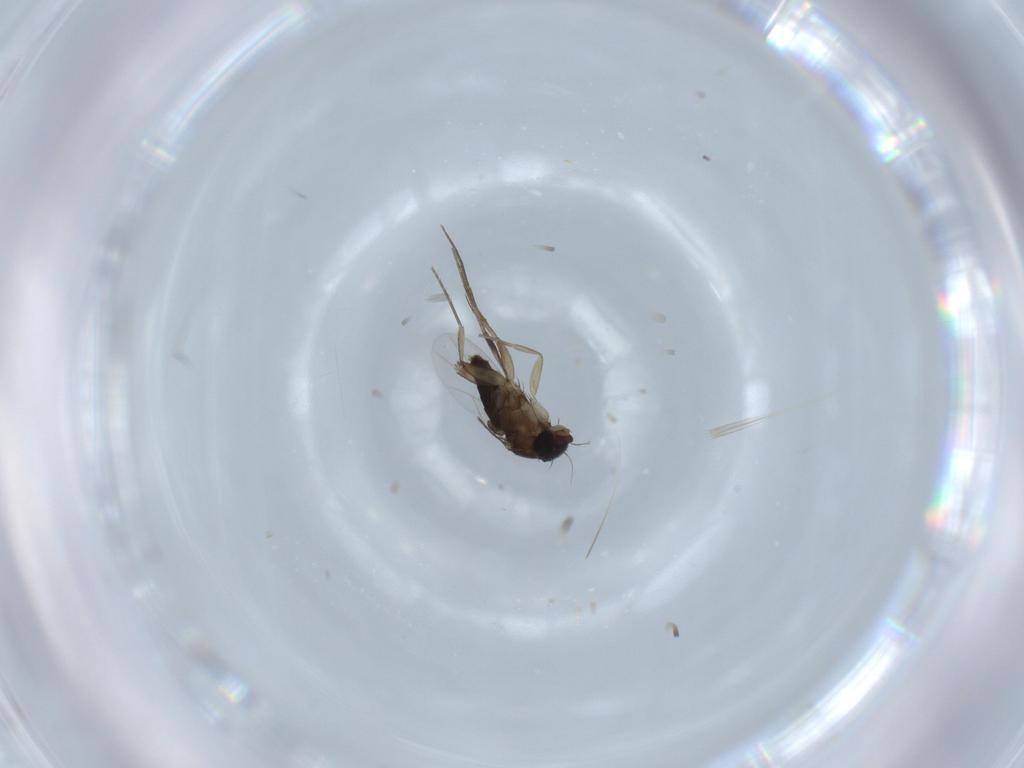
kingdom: Animalia
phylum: Arthropoda
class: Insecta
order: Diptera
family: Phoridae
